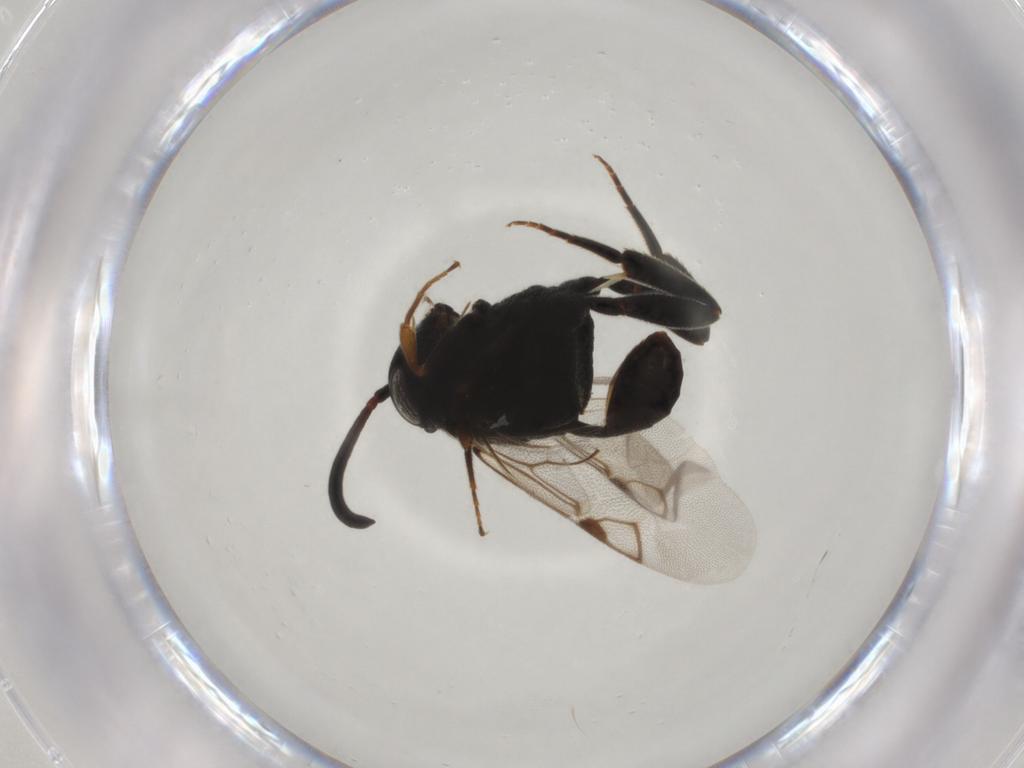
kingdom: Animalia
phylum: Arthropoda
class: Insecta
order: Hymenoptera
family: Evaniidae
